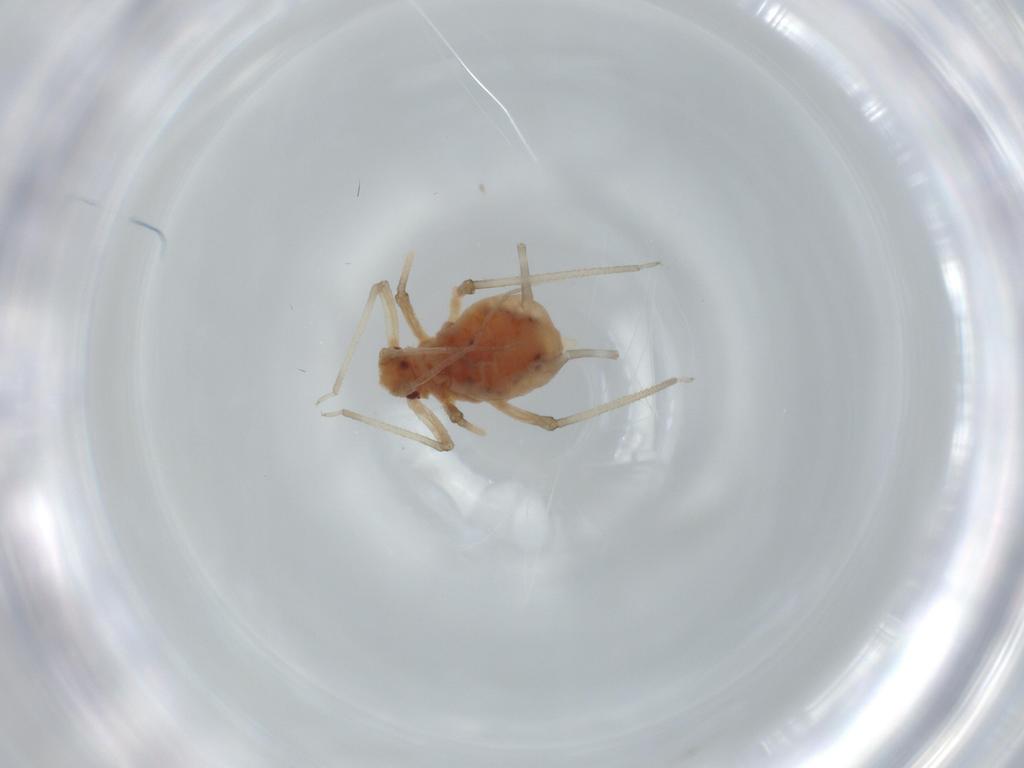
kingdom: Animalia
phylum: Arthropoda
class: Insecta
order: Hemiptera
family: Aphididae
